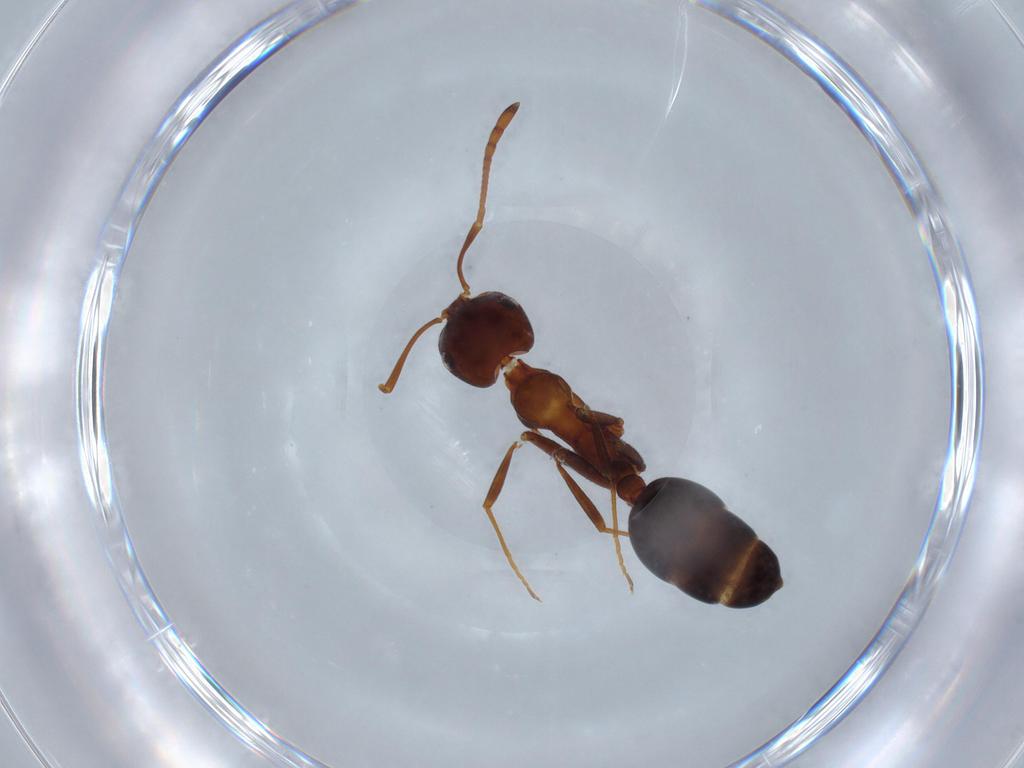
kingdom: Animalia
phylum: Arthropoda
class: Insecta
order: Hymenoptera
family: Formicidae
